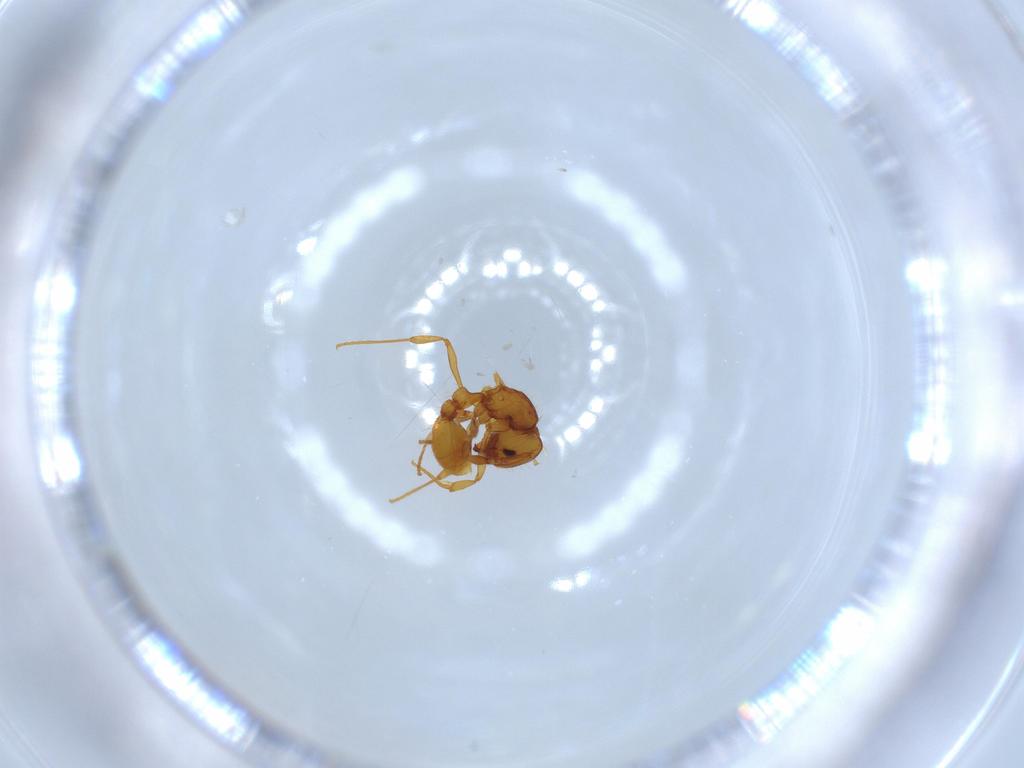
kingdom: Animalia
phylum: Arthropoda
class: Insecta
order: Hymenoptera
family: Formicidae
